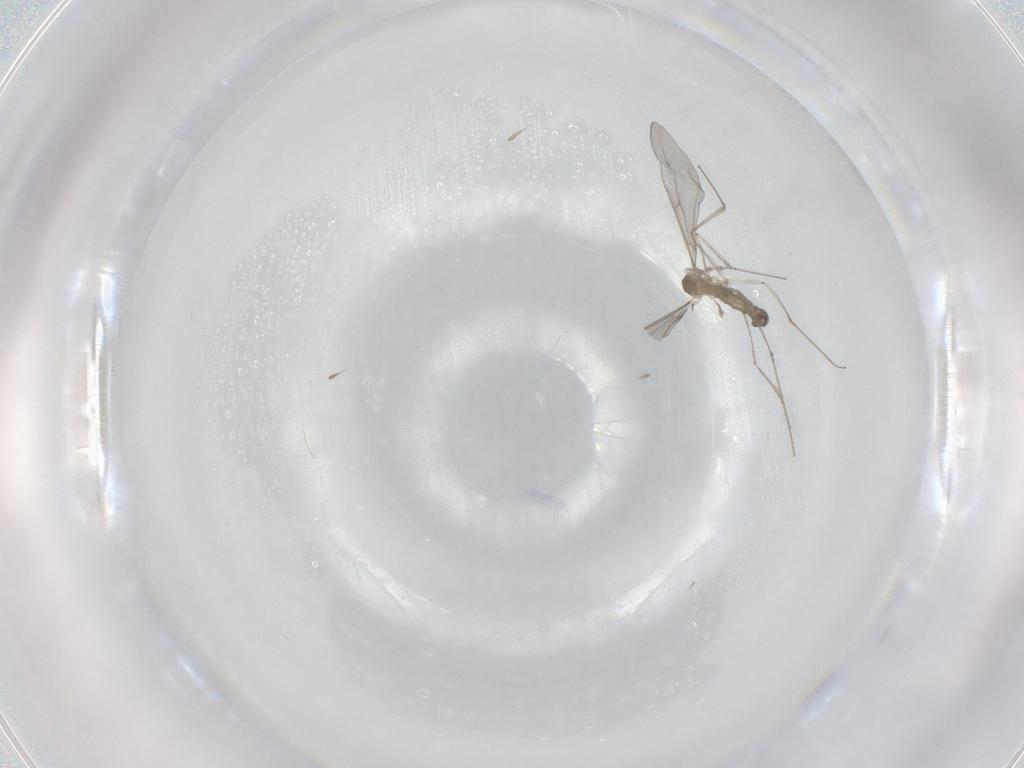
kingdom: Animalia
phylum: Arthropoda
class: Insecta
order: Diptera
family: Cecidomyiidae
